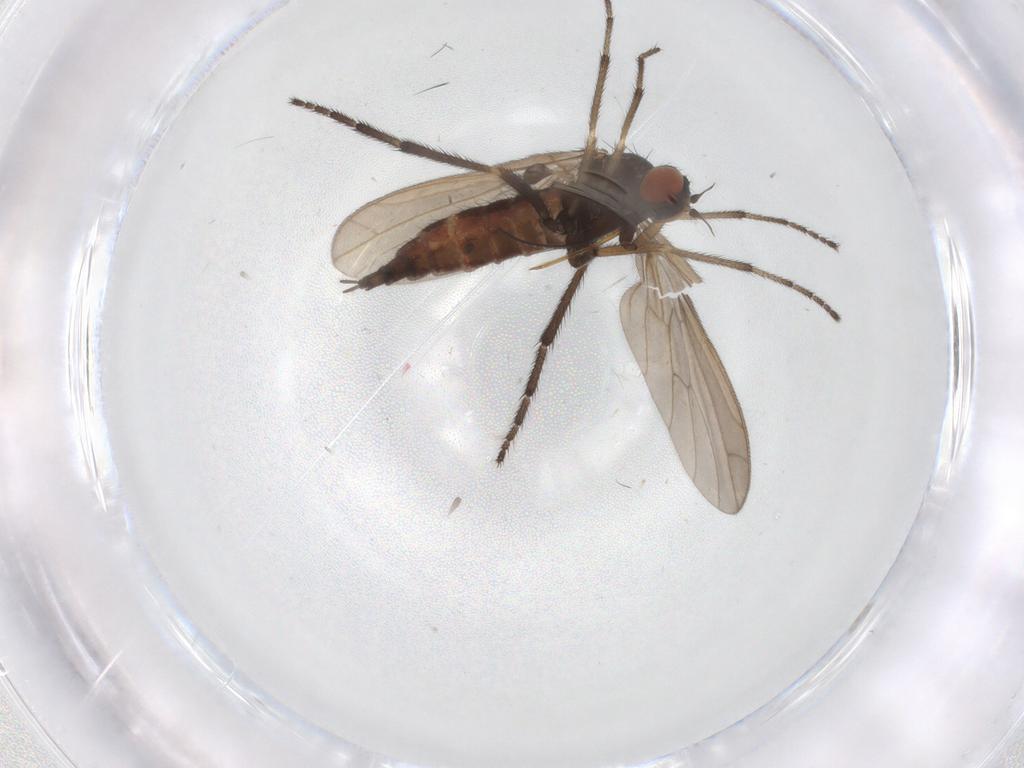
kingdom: Animalia
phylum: Arthropoda
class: Insecta
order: Diptera
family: Empididae
